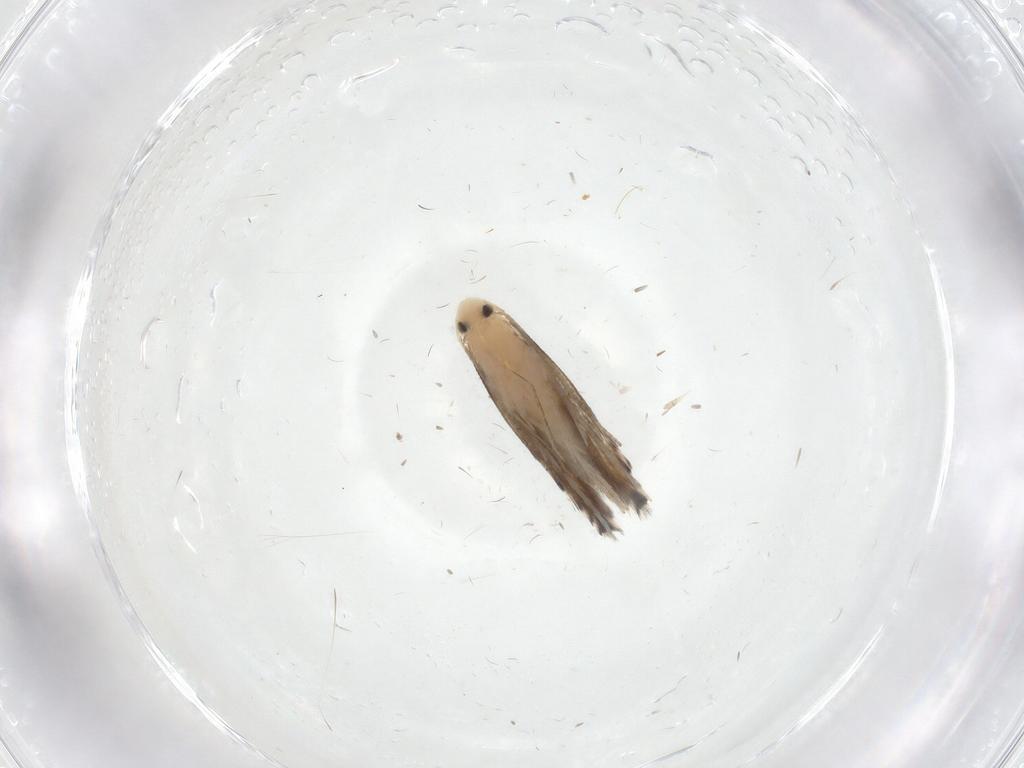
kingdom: Animalia
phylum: Arthropoda
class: Insecta
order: Lepidoptera
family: Gracillariidae
